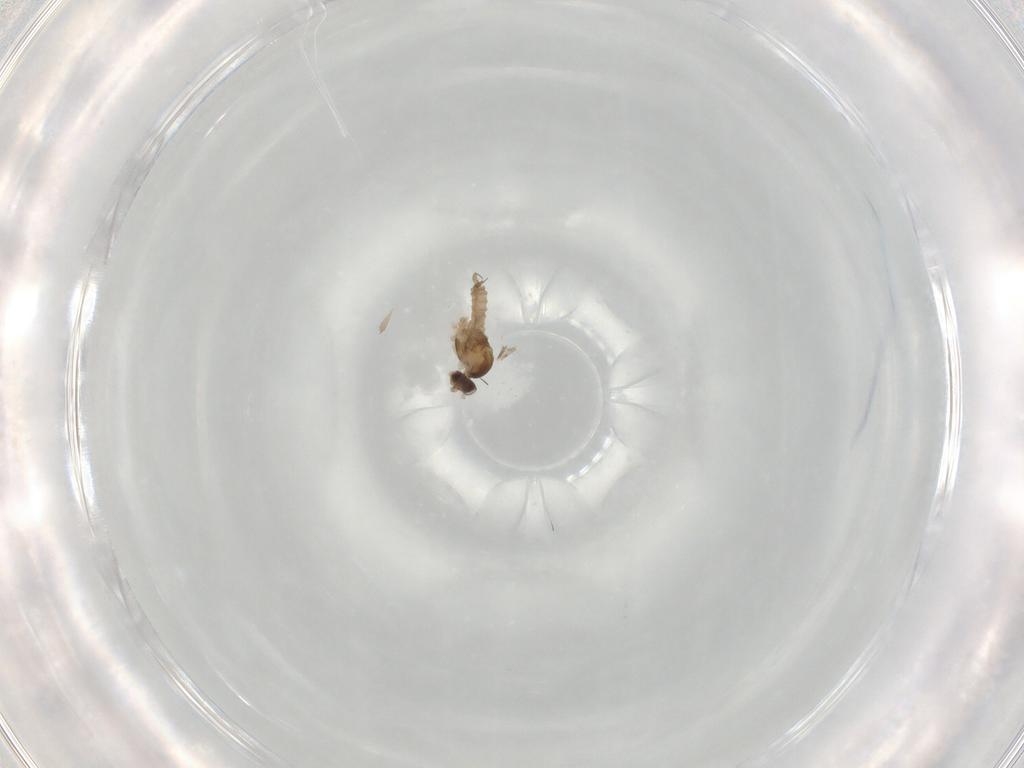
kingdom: Animalia
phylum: Arthropoda
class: Insecta
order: Diptera
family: Cecidomyiidae
